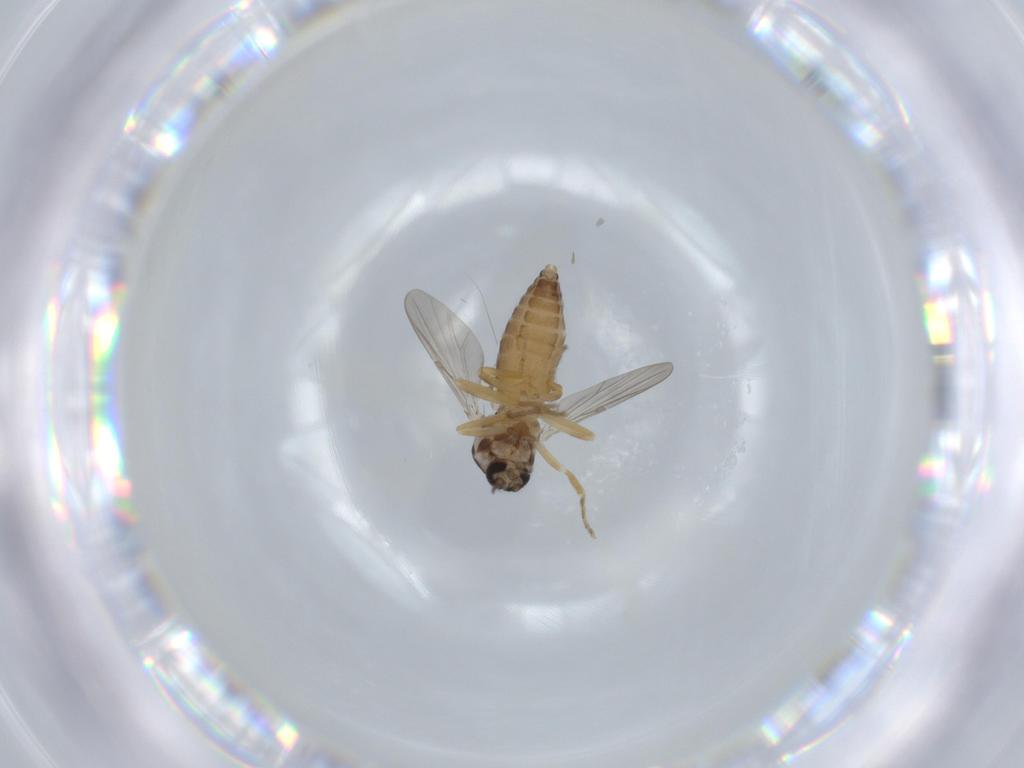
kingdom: Animalia
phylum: Arthropoda
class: Insecta
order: Diptera
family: Ceratopogonidae
